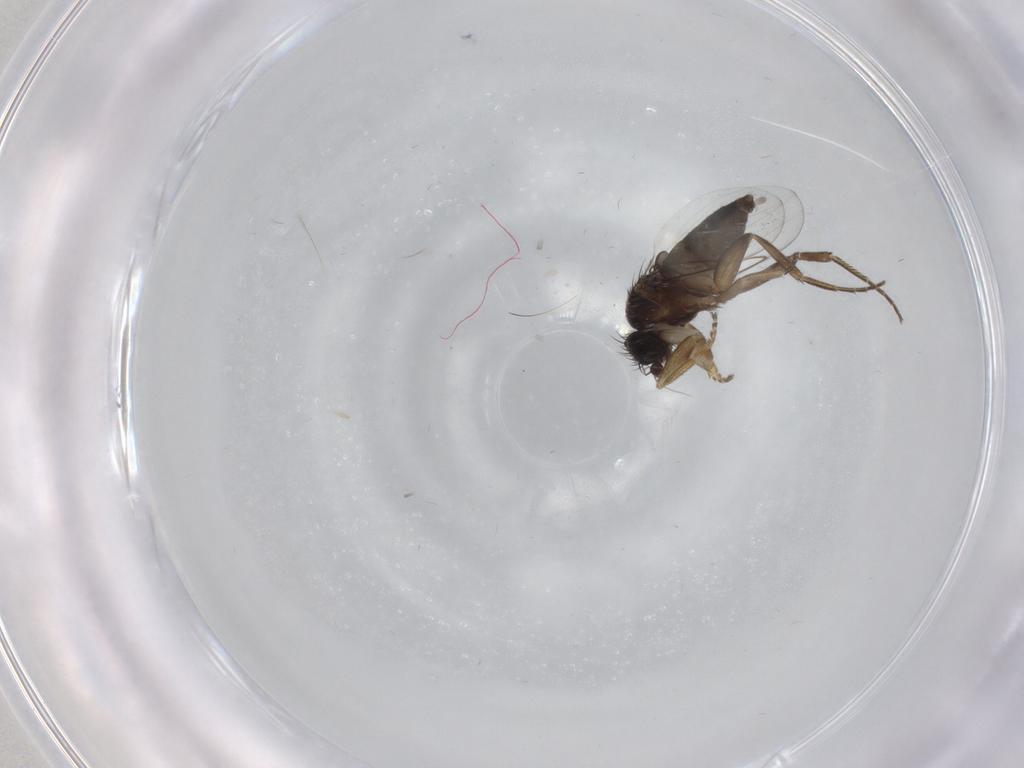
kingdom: Animalia
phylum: Arthropoda
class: Insecta
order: Diptera
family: Phoridae
